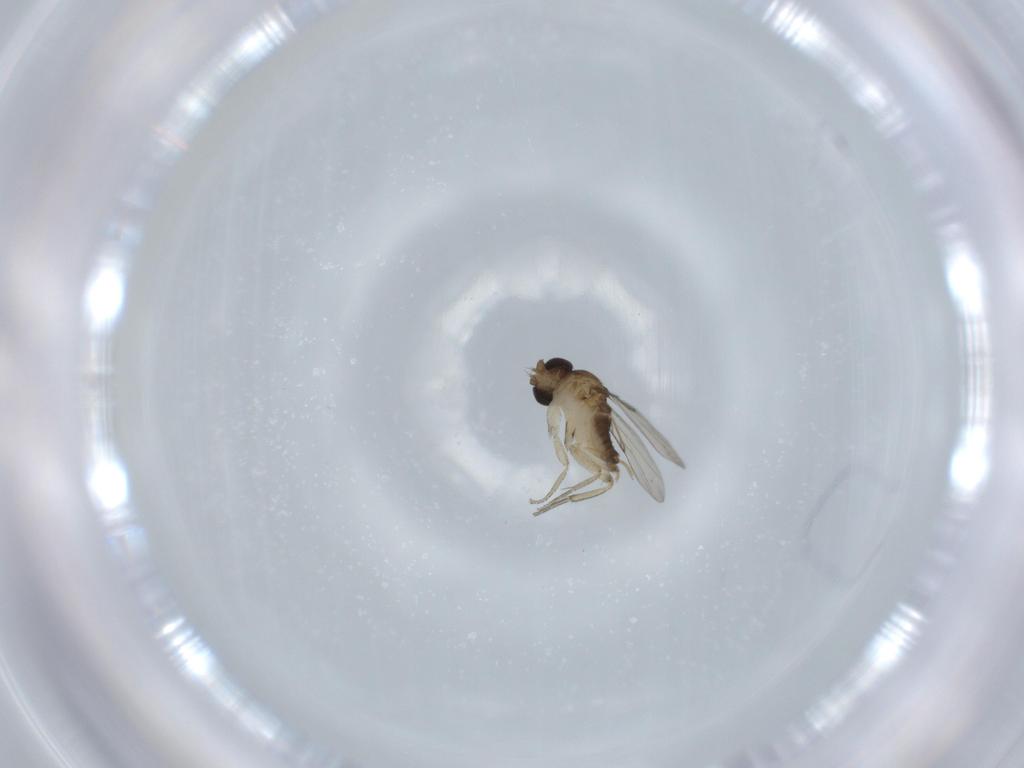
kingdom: Animalia
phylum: Arthropoda
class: Insecta
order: Diptera
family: Phoridae
